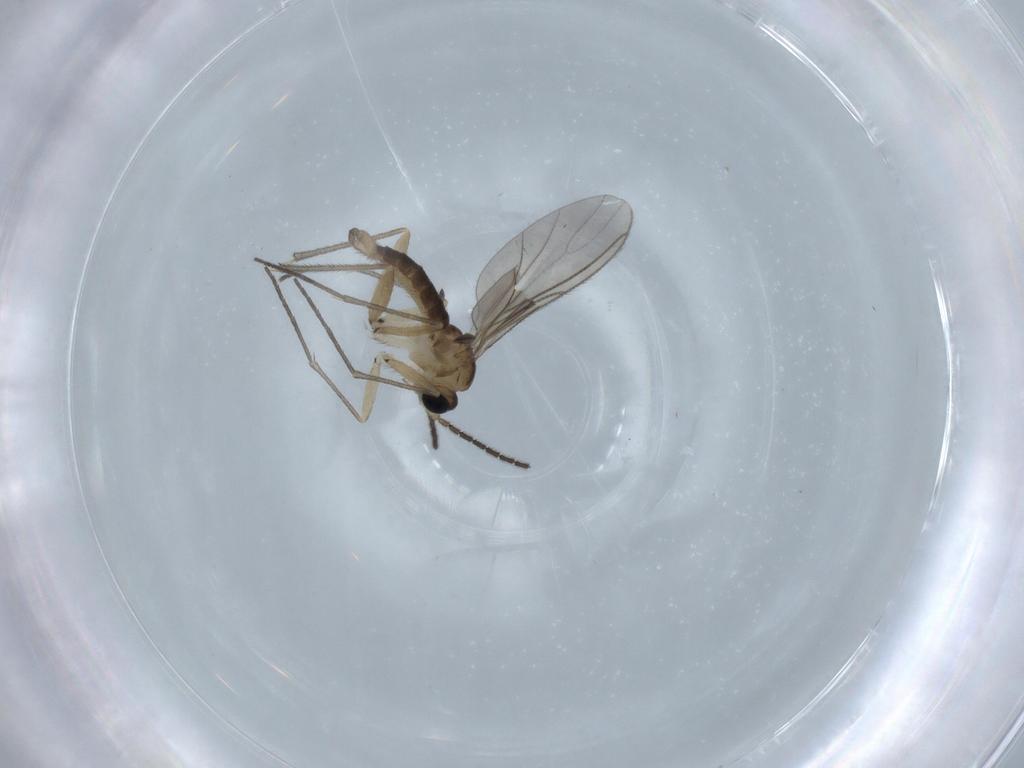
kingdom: Animalia
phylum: Arthropoda
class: Insecta
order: Diptera
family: Sciaridae
